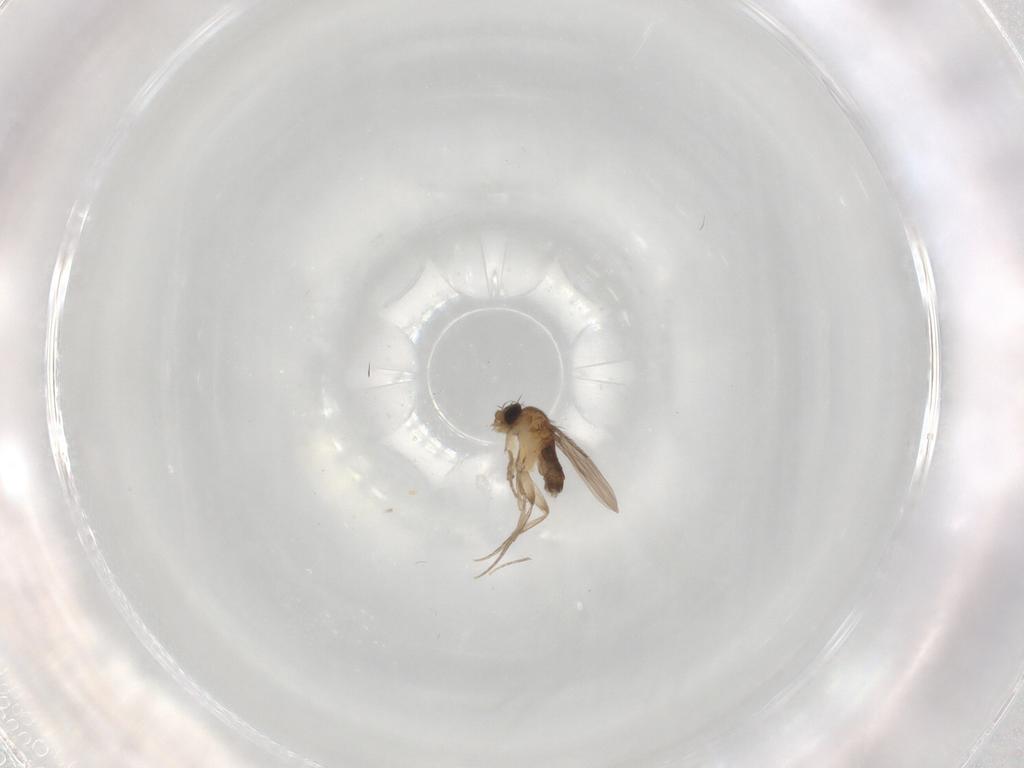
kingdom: Animalia
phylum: Arthropoda
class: Insecta
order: Diptera
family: Phoridae
